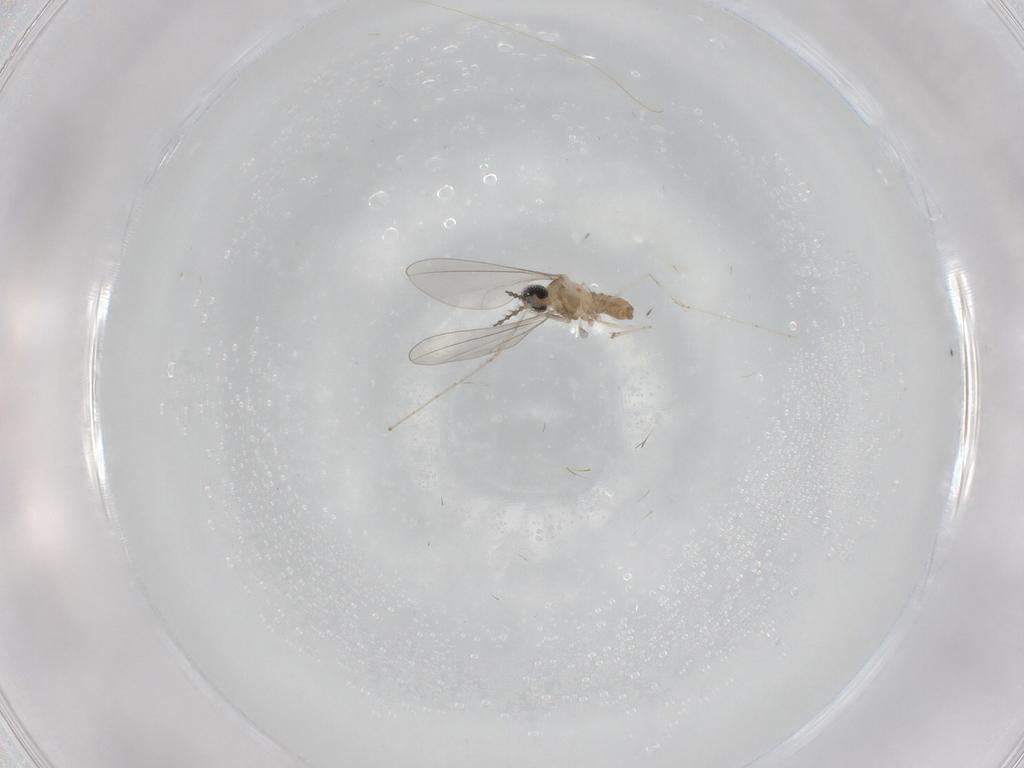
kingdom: Animalia
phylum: Arthropoda
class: Insecta
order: Diptera
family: Cecidomyiidae
